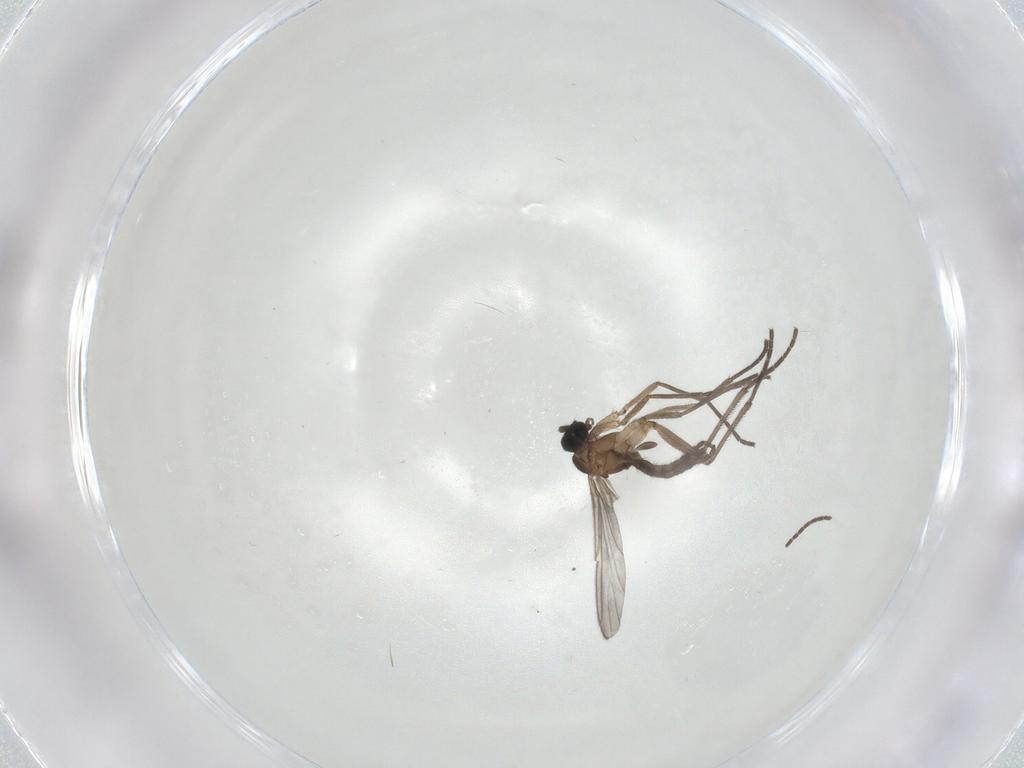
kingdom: Animalia
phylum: Arthropoda
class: Insecta
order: Diptera
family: Sciaridae
